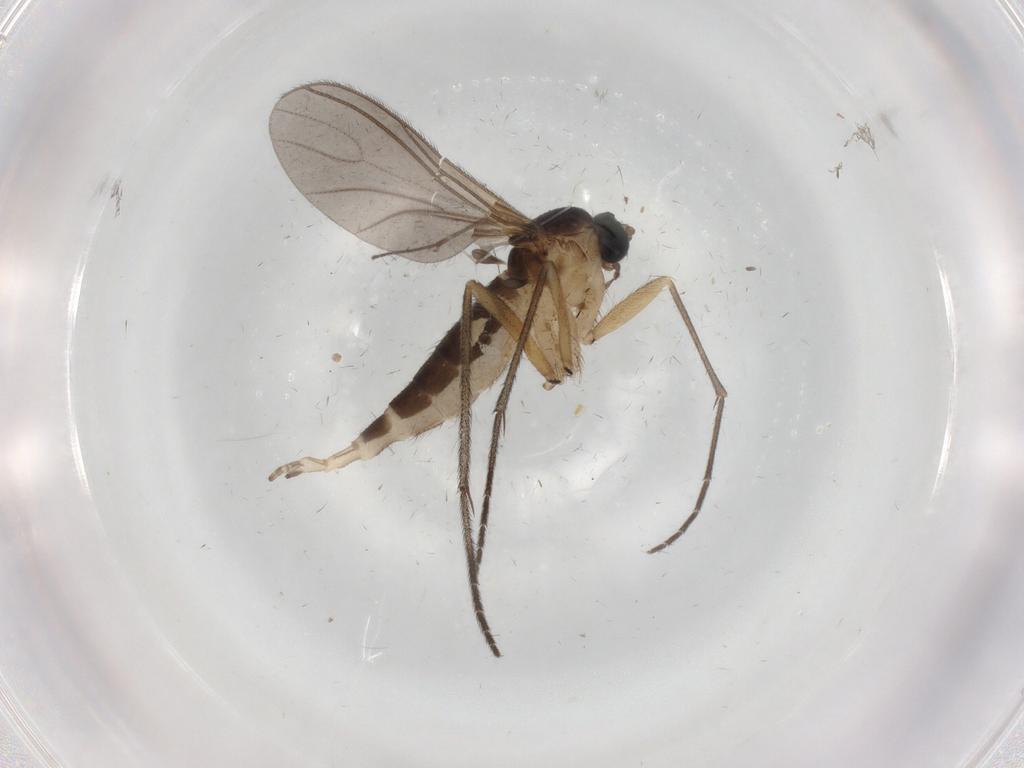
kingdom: Animalia
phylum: Arthropoda
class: Insecta
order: Diptera
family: Sciaridae
